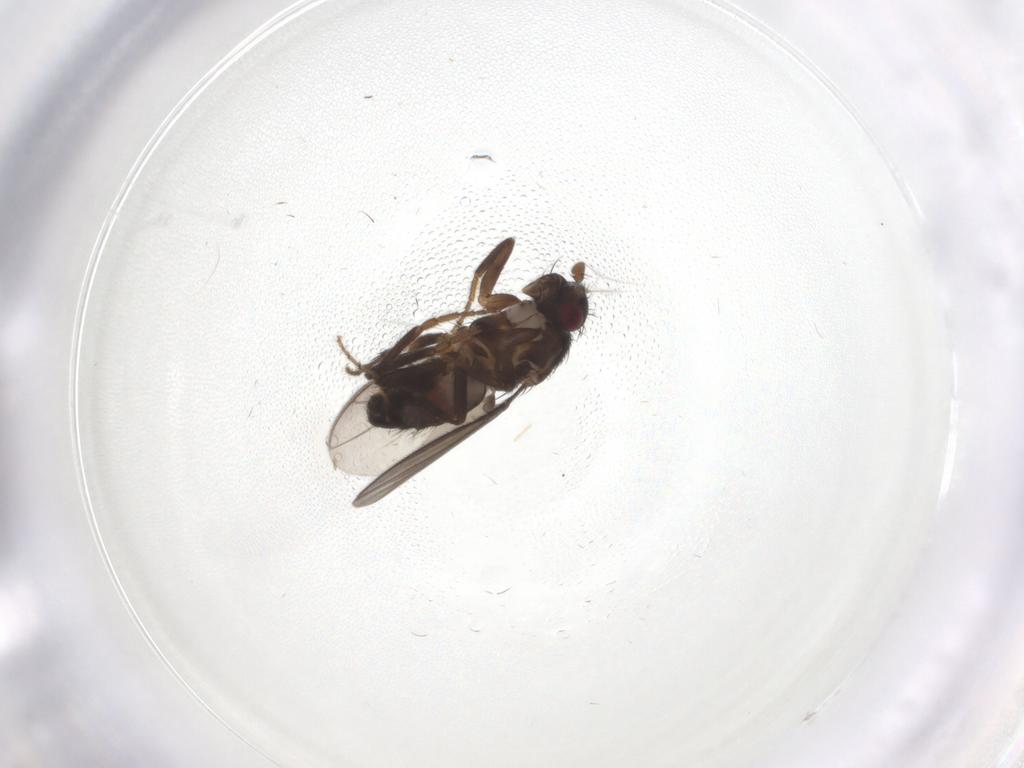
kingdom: Animalia
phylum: Arthropoda
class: Insecta
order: Diptera
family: Sphaeroceridae
